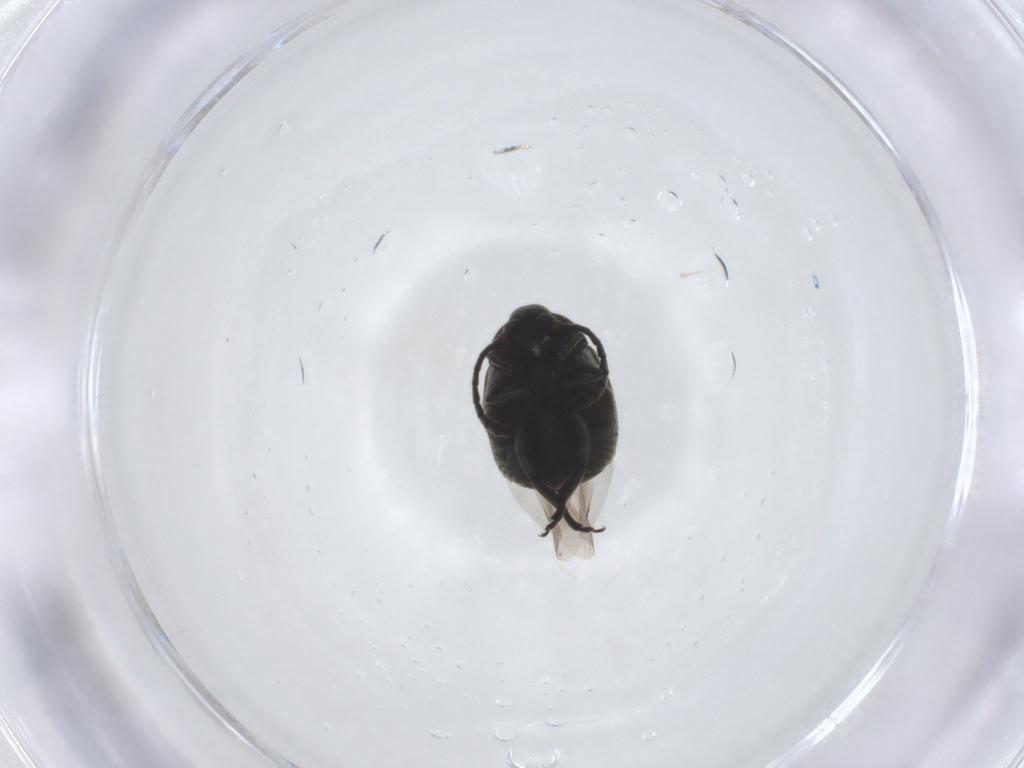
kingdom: Animalia
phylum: Arthropoda
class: Insecta
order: Coleoptera
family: Chrysomelidae
